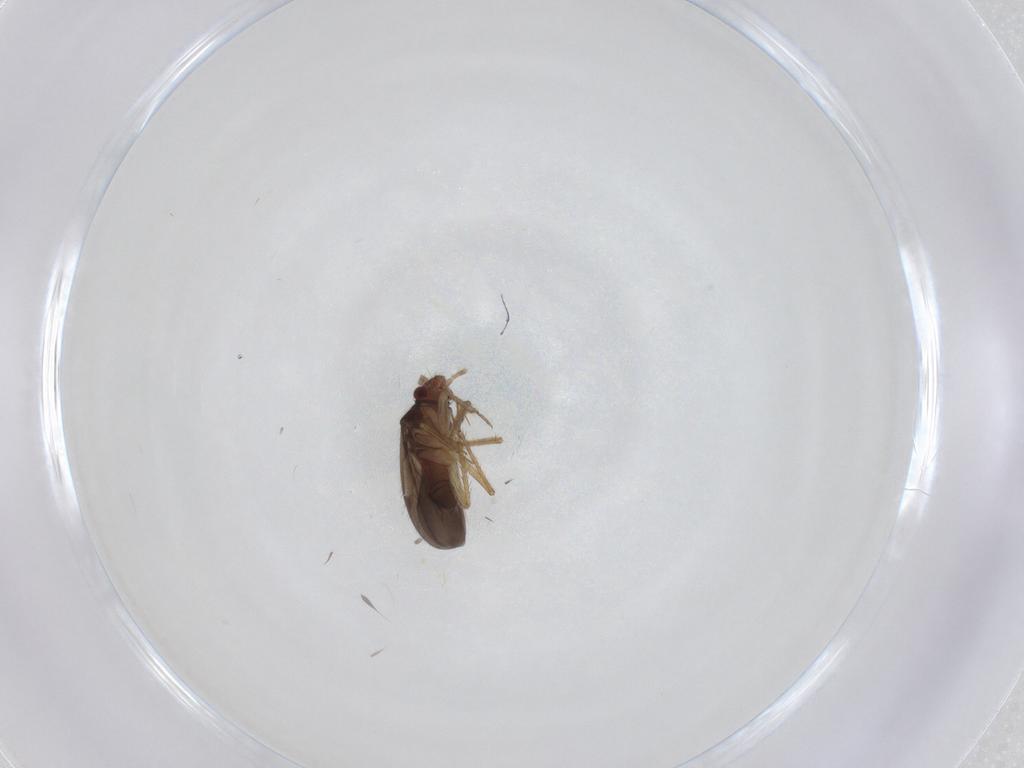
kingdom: Animalia
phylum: Arthropoda
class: Insecta
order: Hemiptera
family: Ceratocombidae
